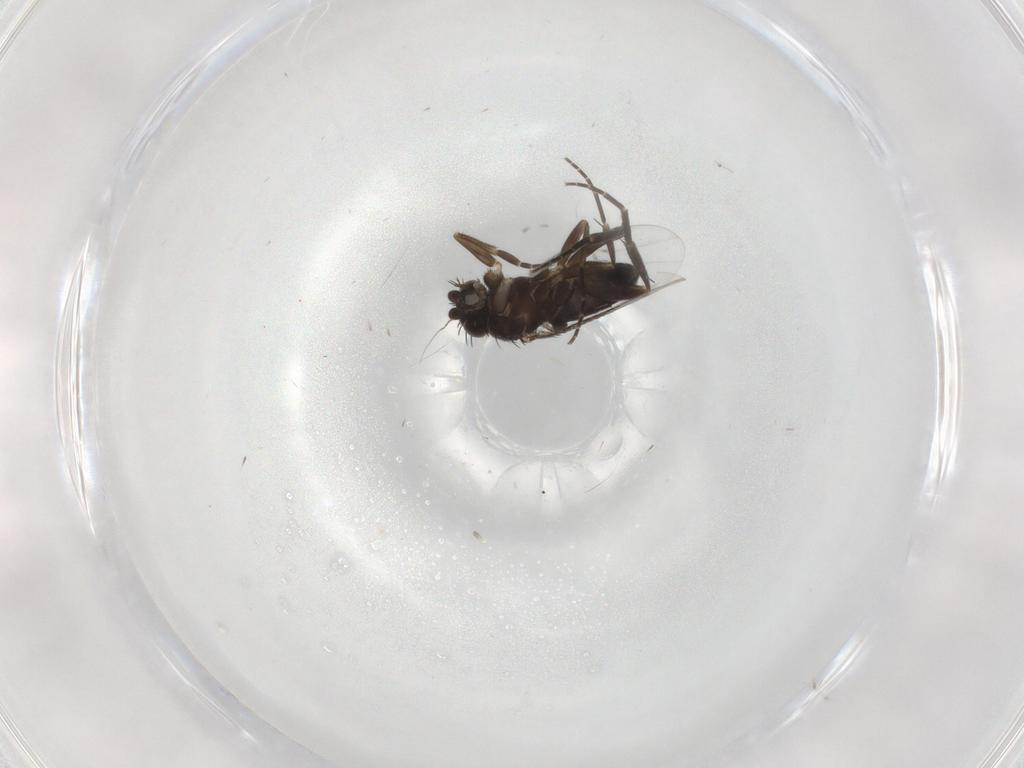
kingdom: Animalia
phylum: Arthropoda
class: Insecta
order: Diptera
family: Phoridae
